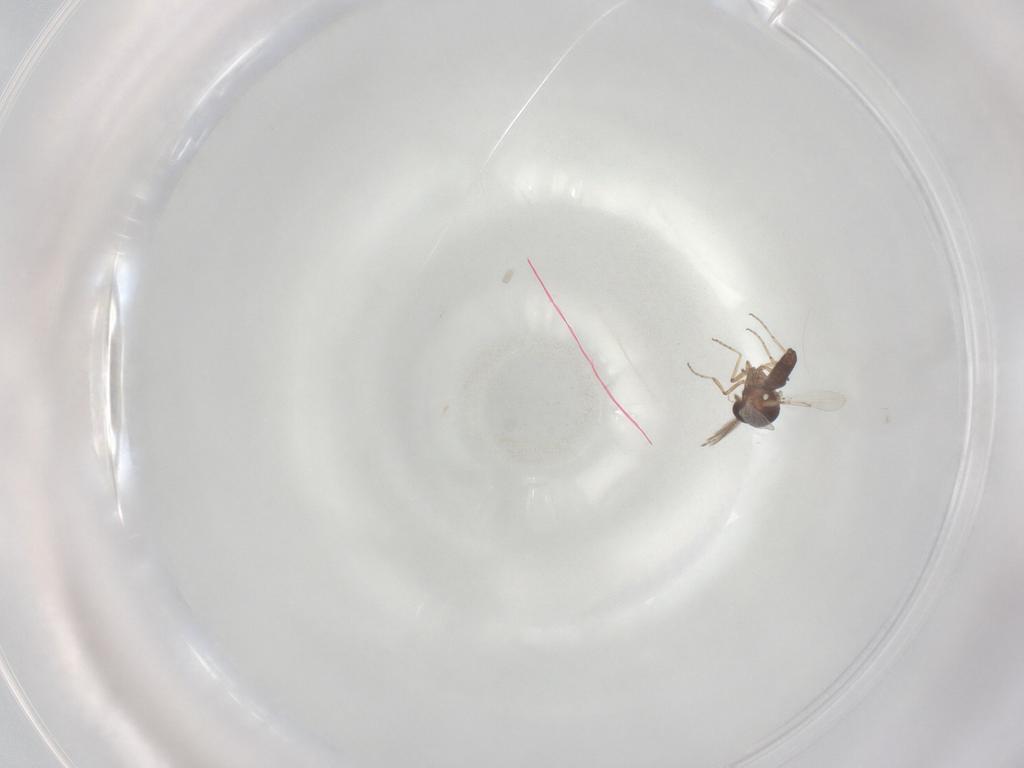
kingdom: Animalia
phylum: Arthropoda
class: Insecta
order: Diptera
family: Ceratopogonidae
